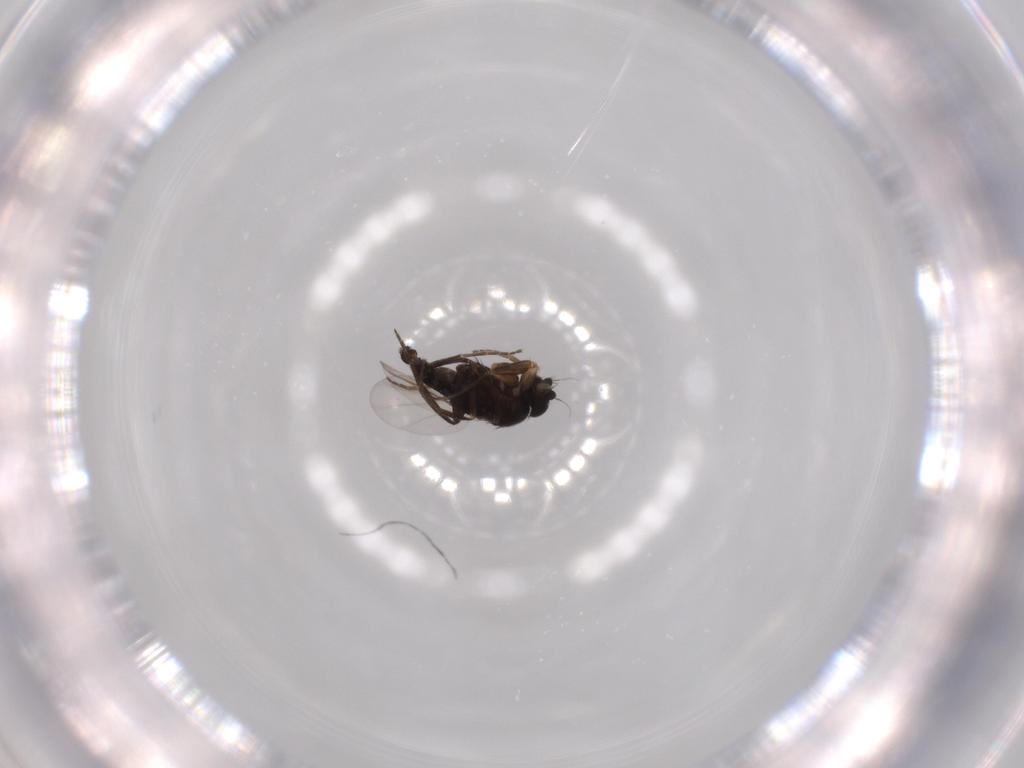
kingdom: Animalia
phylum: Arthropoda
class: Insecta
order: Diptera
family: Phoridae
